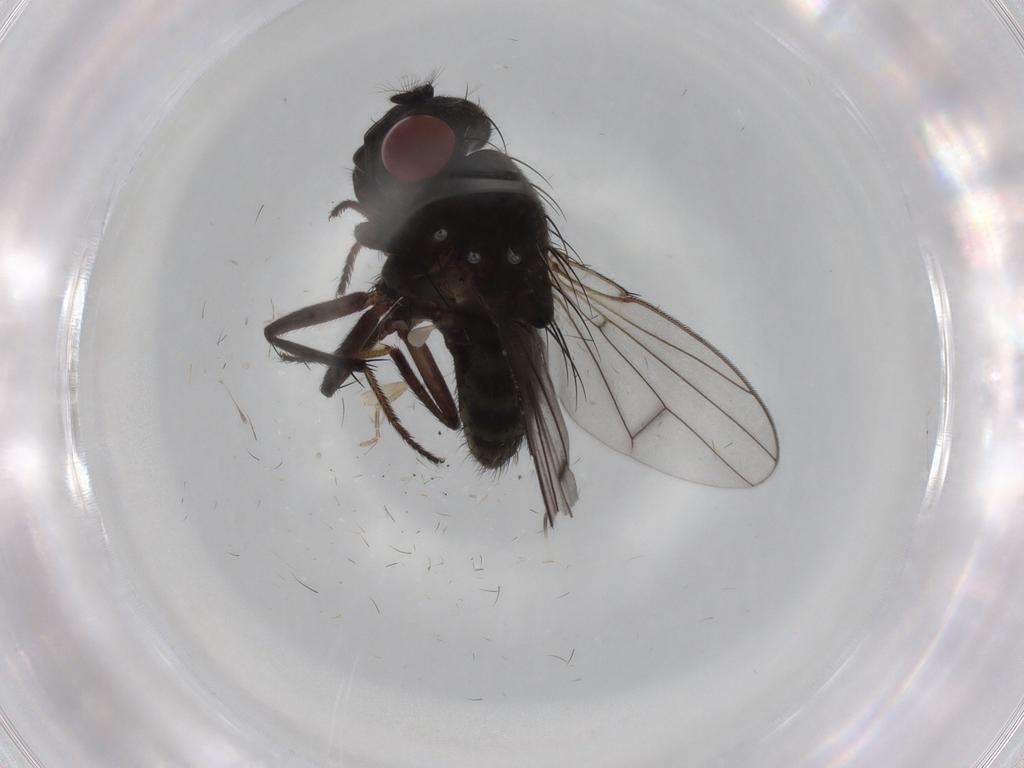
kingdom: Animalia
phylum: Arthropoda
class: Insecta
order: Diptera
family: Ephydridae
